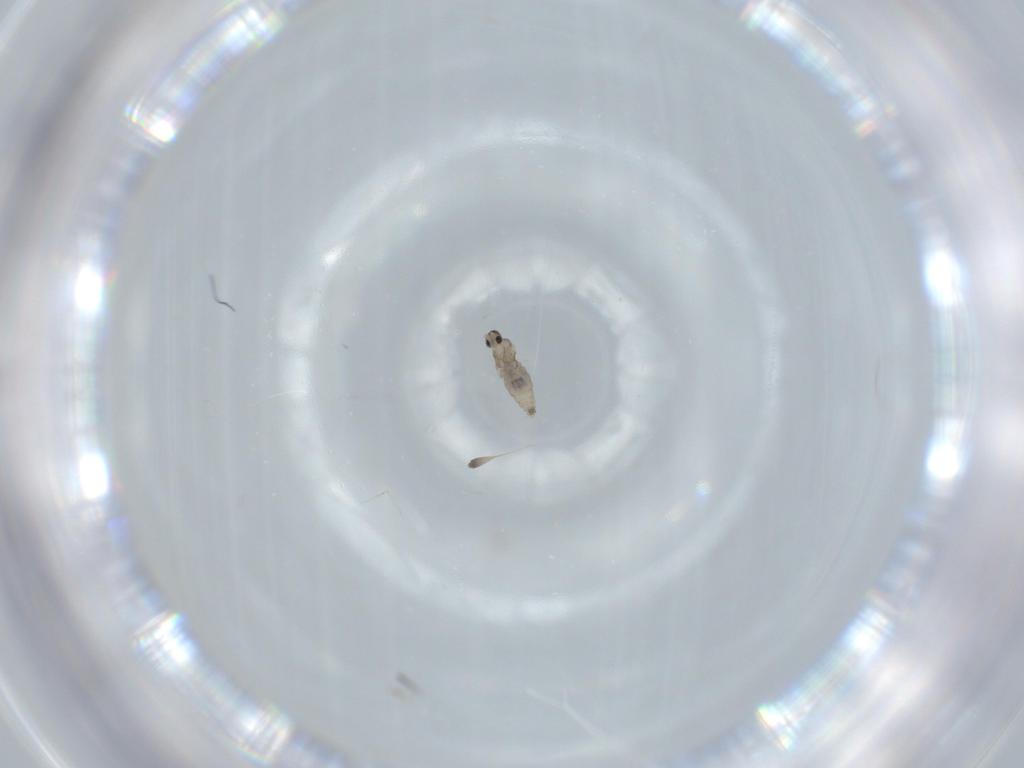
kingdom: Animalia
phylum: Arthropoda
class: Insecta
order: Diptera
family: Cecidomyiidae
